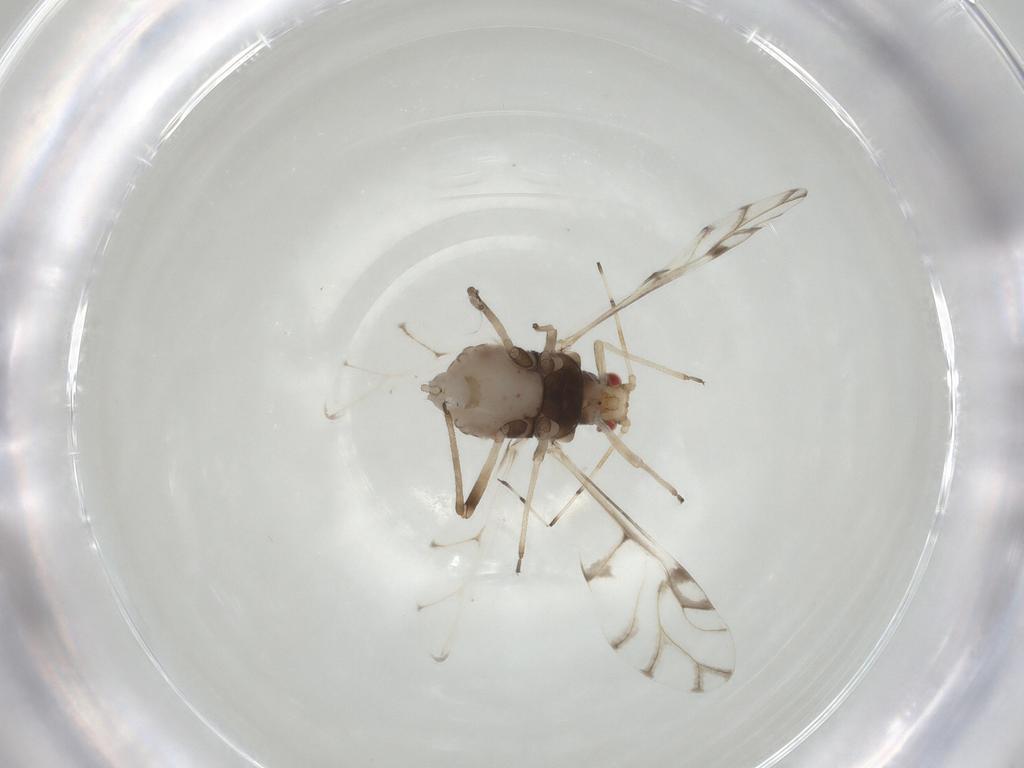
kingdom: Animalia
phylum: Arthropoda
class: Insecta
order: Hemiptera
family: Aphididae
